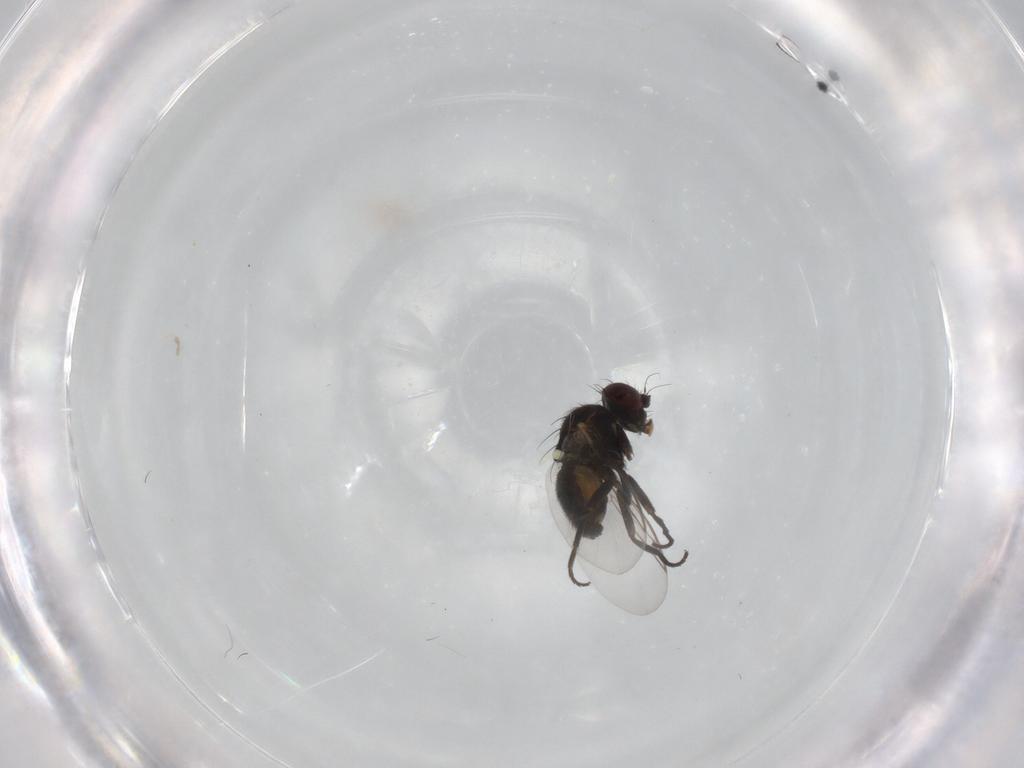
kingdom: Animalia
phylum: Arthropoda
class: Insecta
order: Diptera
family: Agromyzidae
